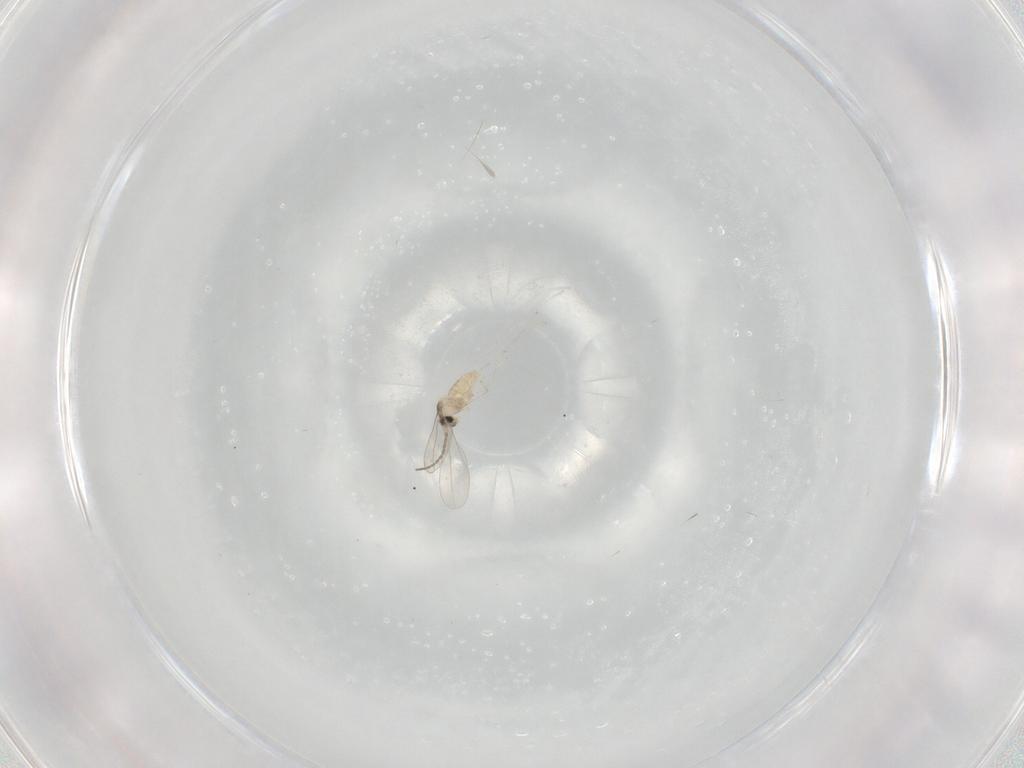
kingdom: Animalia
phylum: Arthropoda
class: Insecta
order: Diptera
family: Cecidomyiidae
